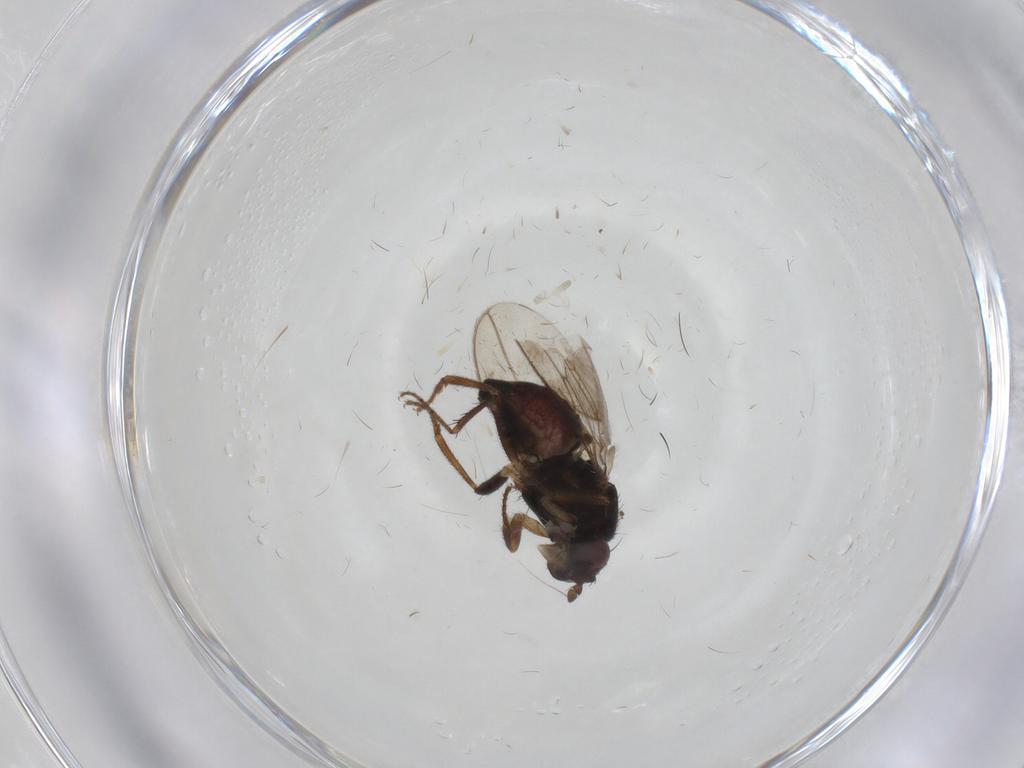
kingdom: Animalia
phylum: Arthropoda
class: Insecta
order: Diptera
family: Sphaeroceridae
